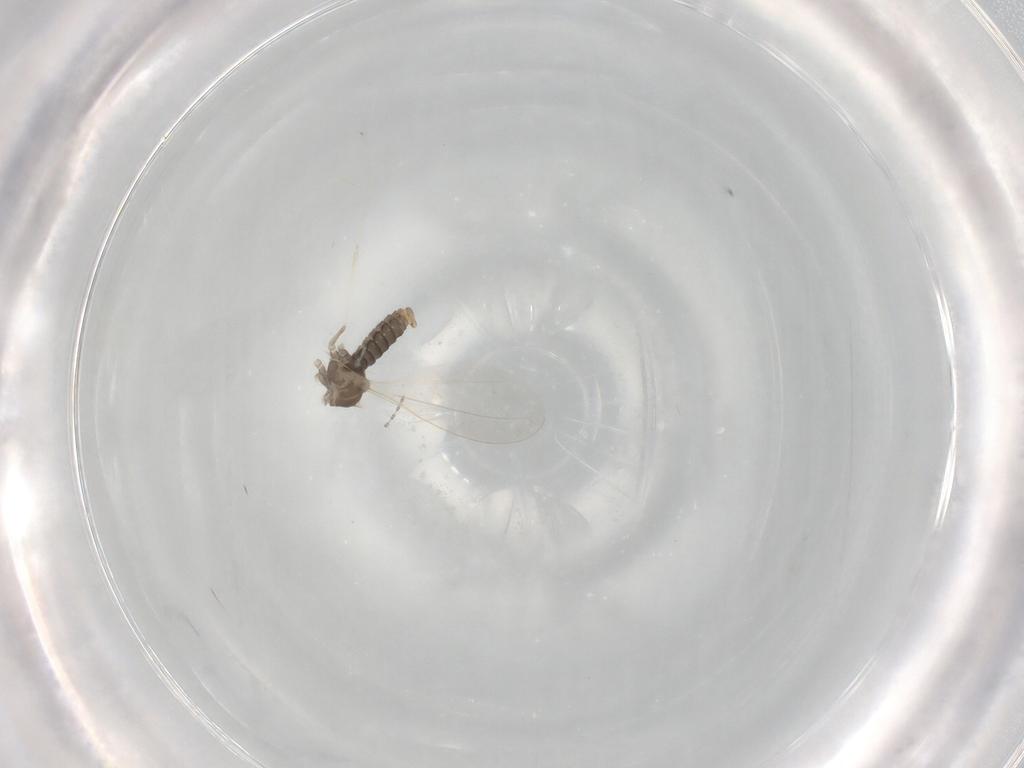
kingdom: Animalia
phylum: Arthropoda
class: Insecta
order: Diptera
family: Cecidomyiidae
